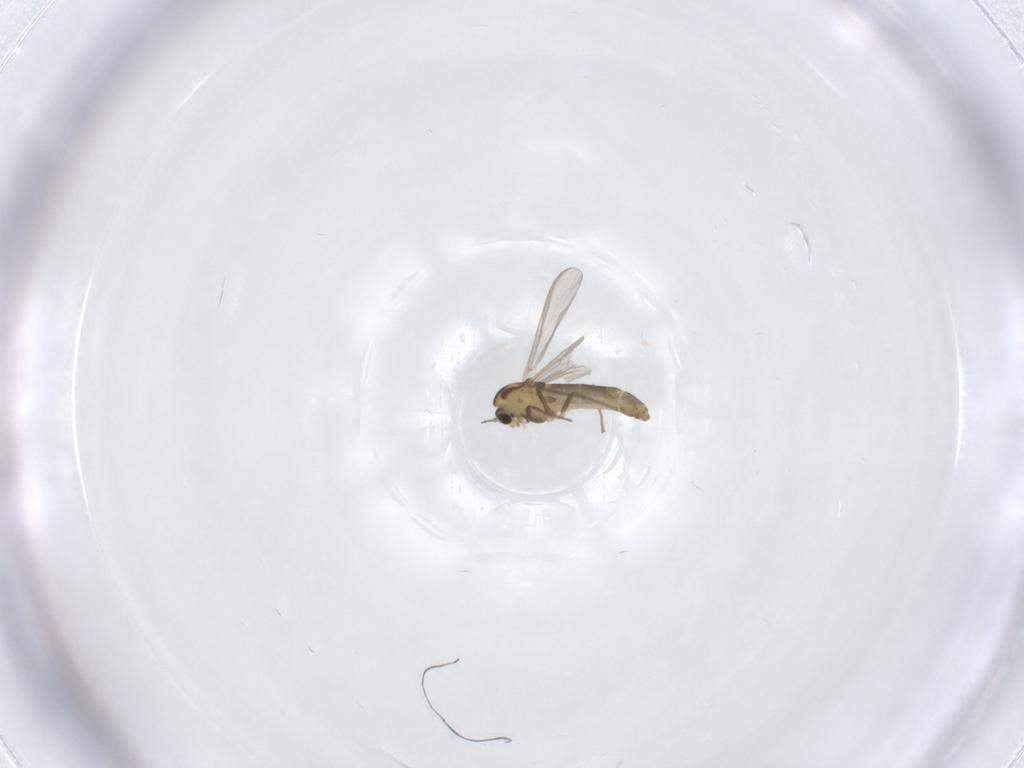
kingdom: Animalia
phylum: Arthropoda
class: Insecta
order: Diptera
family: Chironomidae
